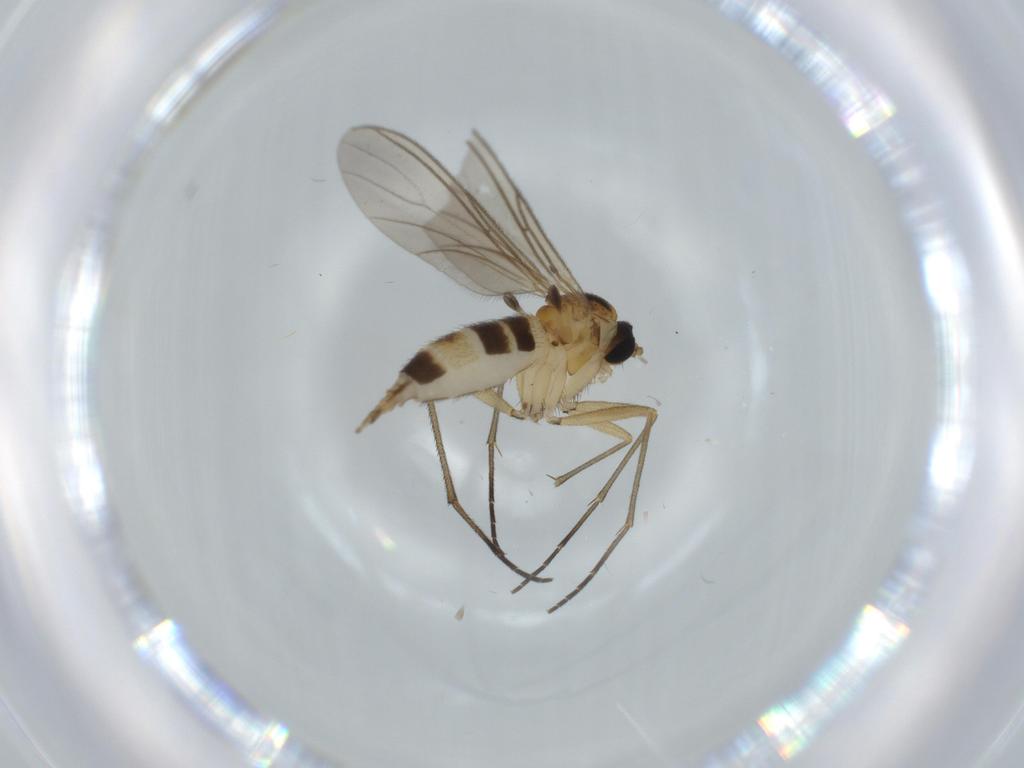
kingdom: Animalia
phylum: Arthropoda
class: Insecta
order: Diptera
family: Sciaridae
